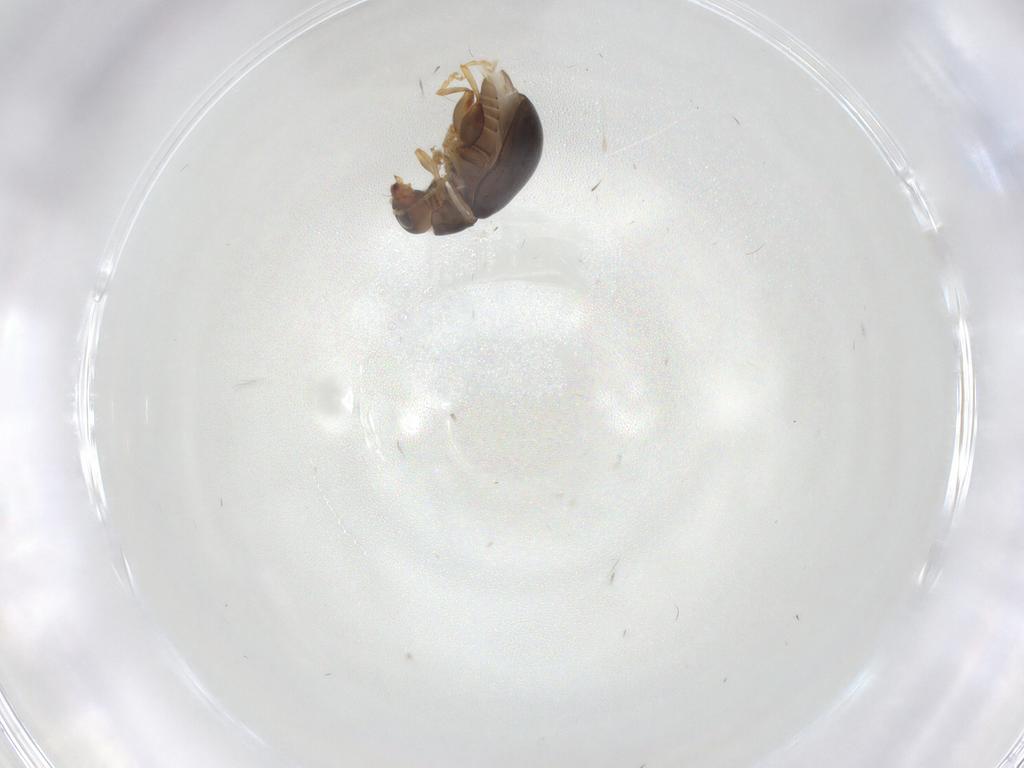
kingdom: Animalia
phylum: Arthropoda
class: Insecta
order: Coleoptera
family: Chrysomelidae
